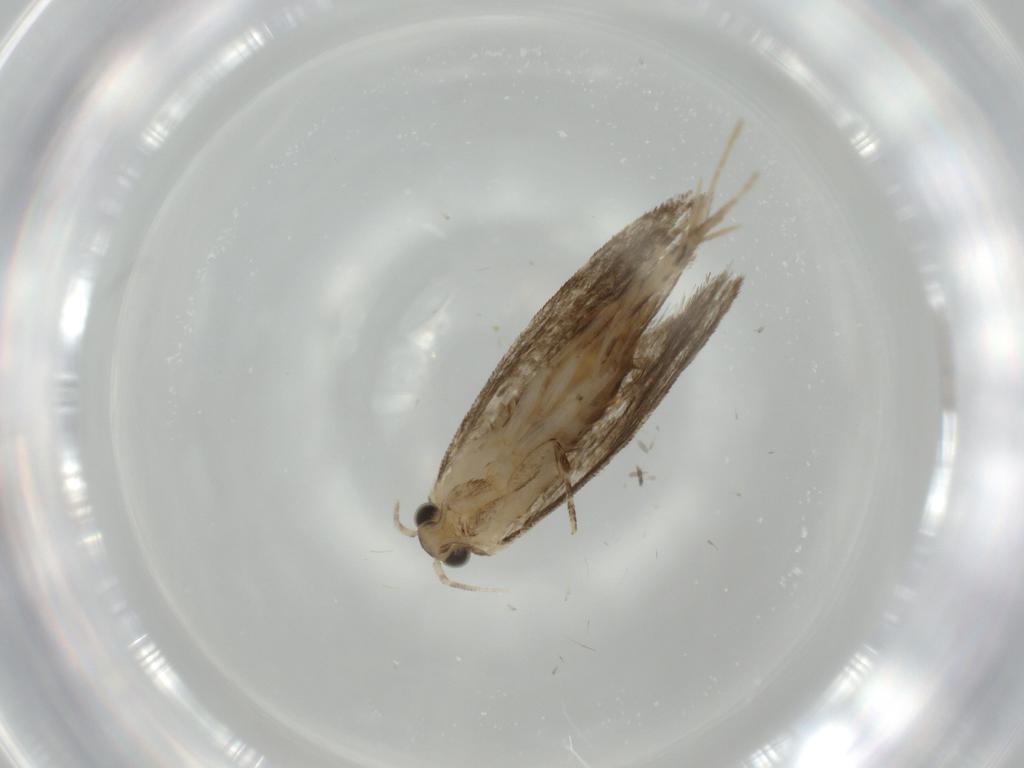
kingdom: Animalia
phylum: Arthropoda
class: Insecta
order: Lepidoptera
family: Tineidae
